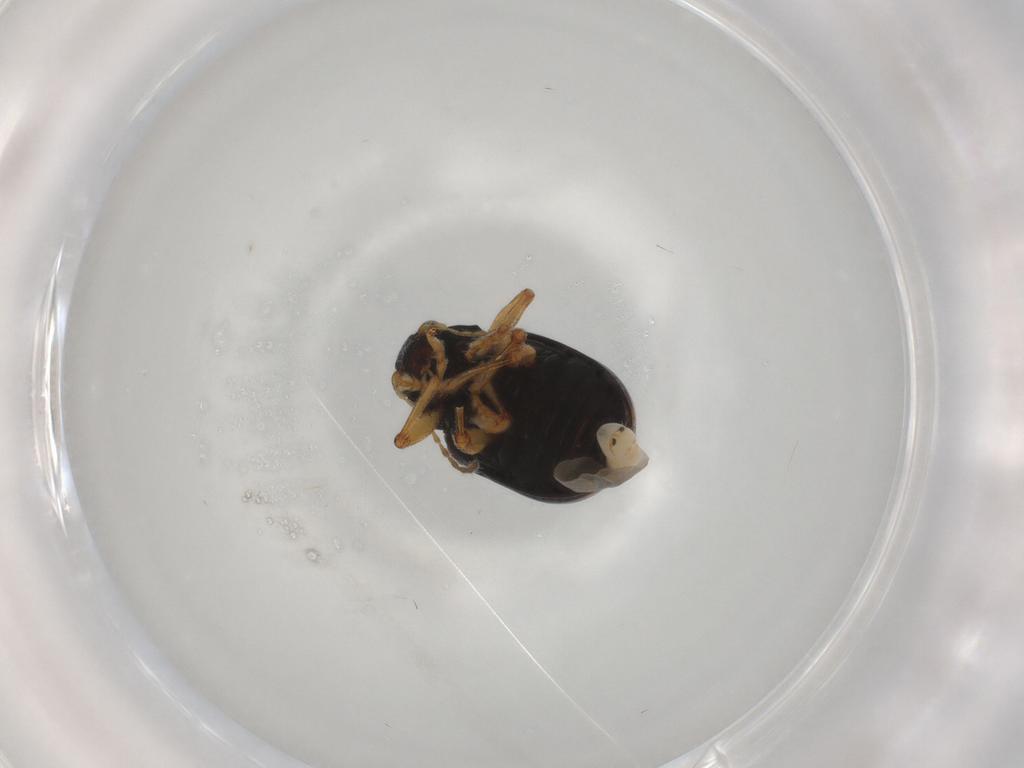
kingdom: Animalia
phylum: Arthropoda
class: Insecta
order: Coleoptera
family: Chrysomelidae
